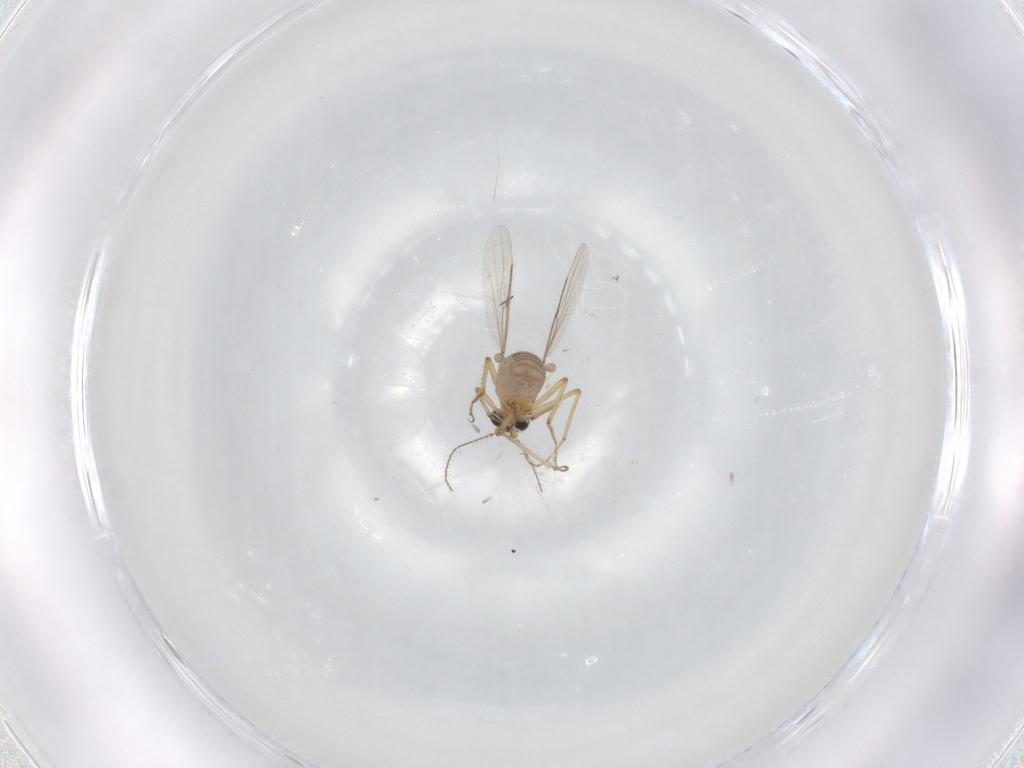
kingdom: Animalia
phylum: Arthropoda
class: Insecta
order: Diptera
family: Ceratopogonidae
